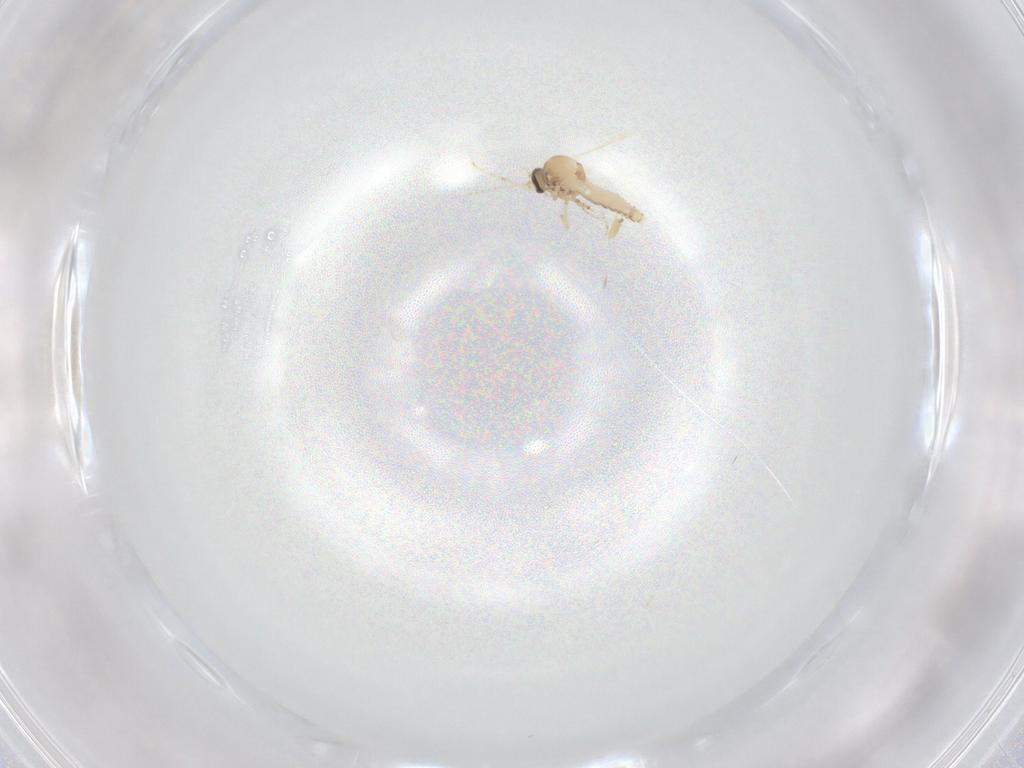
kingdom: Animalia
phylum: Arthropoda
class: Insecta
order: Diptera
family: Ceratopogonidae
